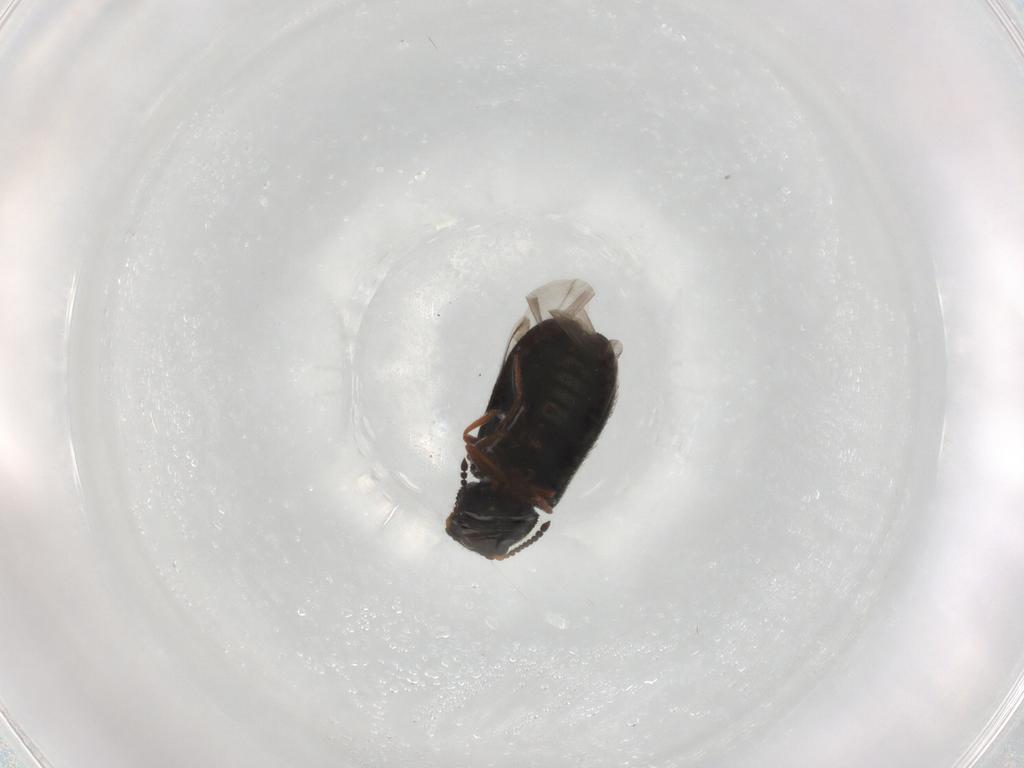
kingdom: Animalia
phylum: Arthropoda
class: Insecta
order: Coleoptera
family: Melyridae
